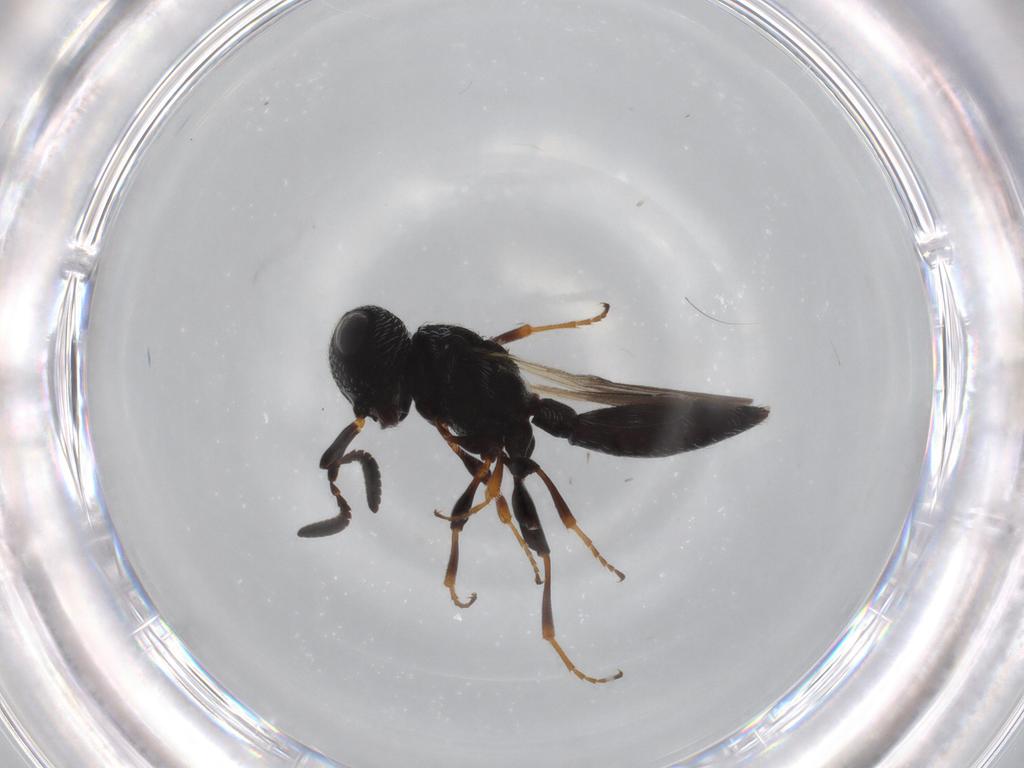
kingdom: Animalia
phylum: Arthropoda
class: Insecta
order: Hymenoptera
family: Scelionidae
